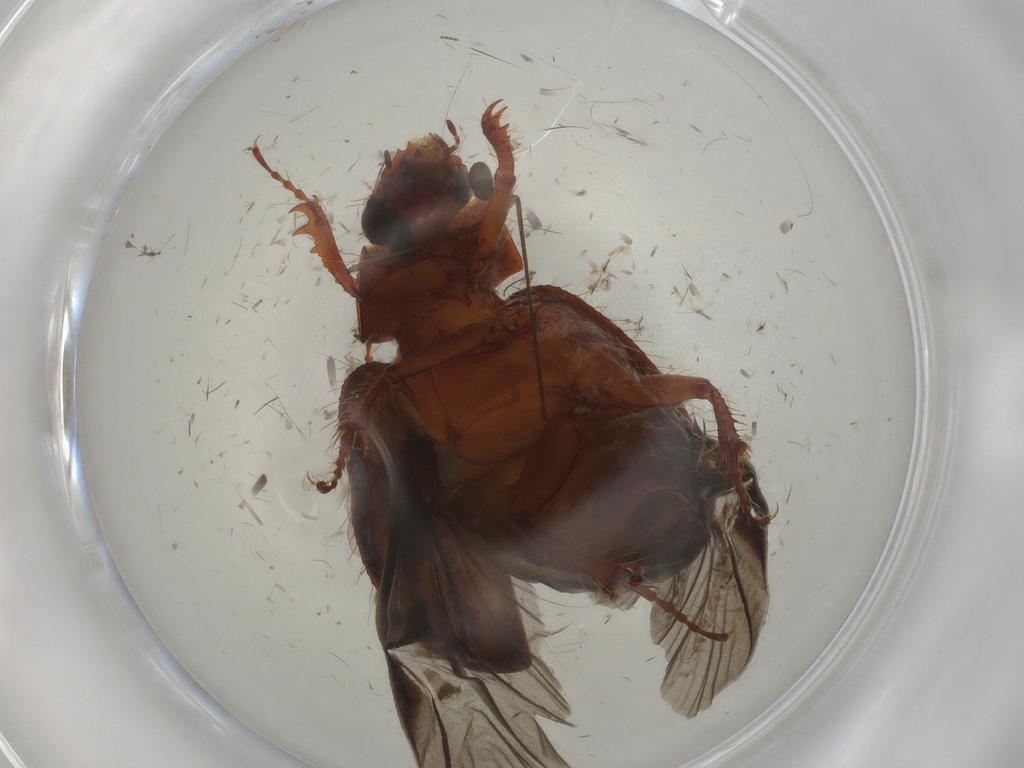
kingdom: Animalia
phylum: Arthropoda
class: Insecta
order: Coleoptera
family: Hybosoridae
